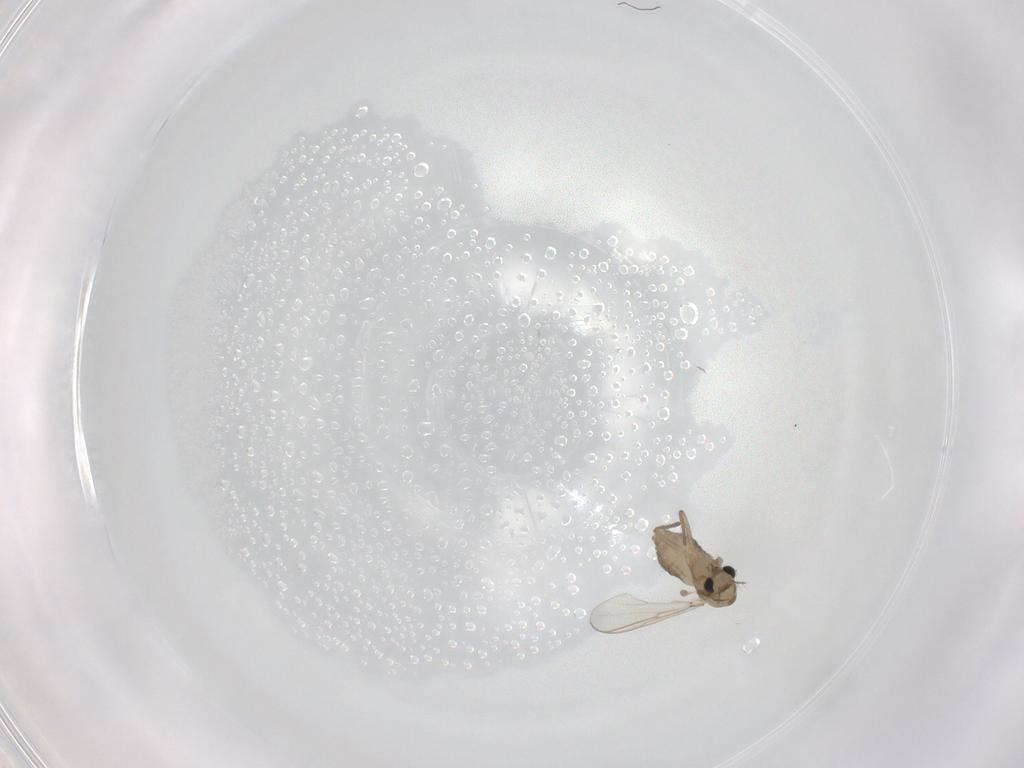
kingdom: Animalia
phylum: Arthropoda
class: Insecta
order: Diptera
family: Chironomidae
